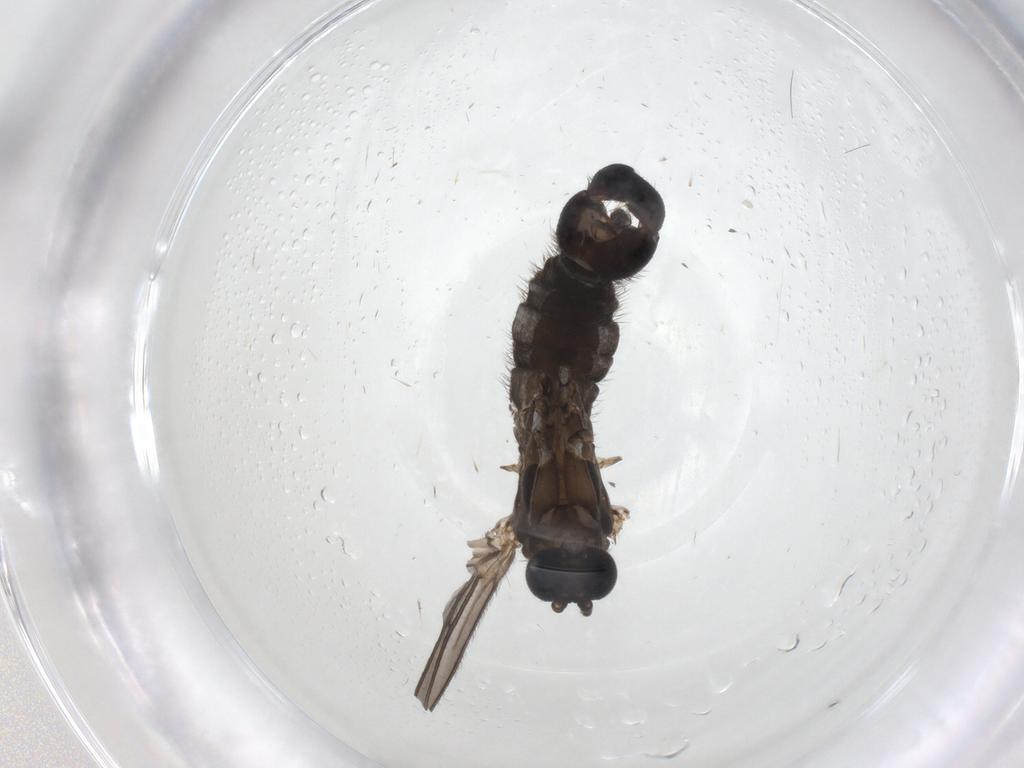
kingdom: Animalia
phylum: Arthropoda
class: Insecta
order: Diptera
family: Sciaridae
